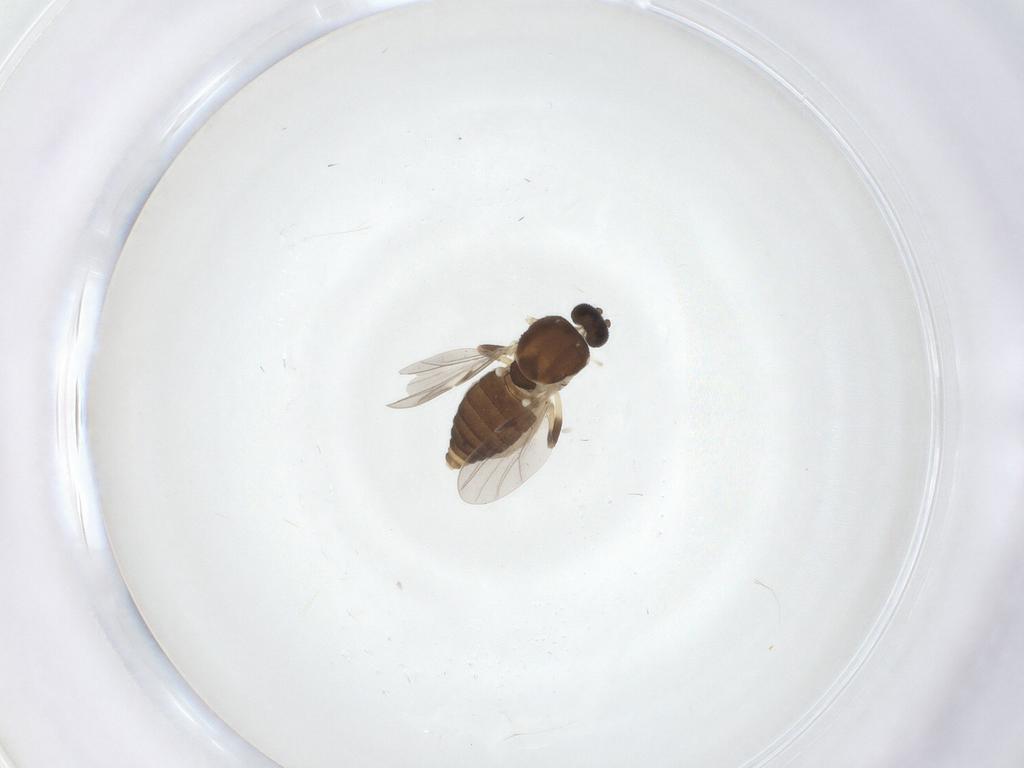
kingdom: Animalia
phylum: Arthropoda
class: Insecta
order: Diptera
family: Ceratopogonidae
